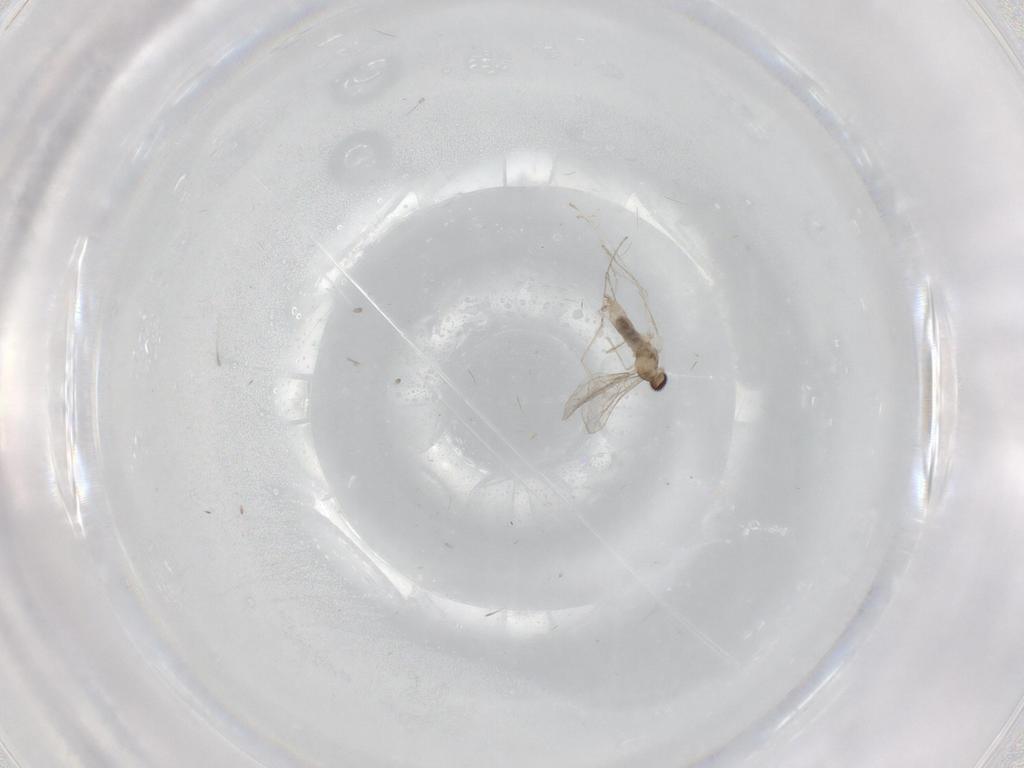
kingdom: Animalia
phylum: Arthropoda
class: Insecta
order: Diptera
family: Cecidomyiidae
